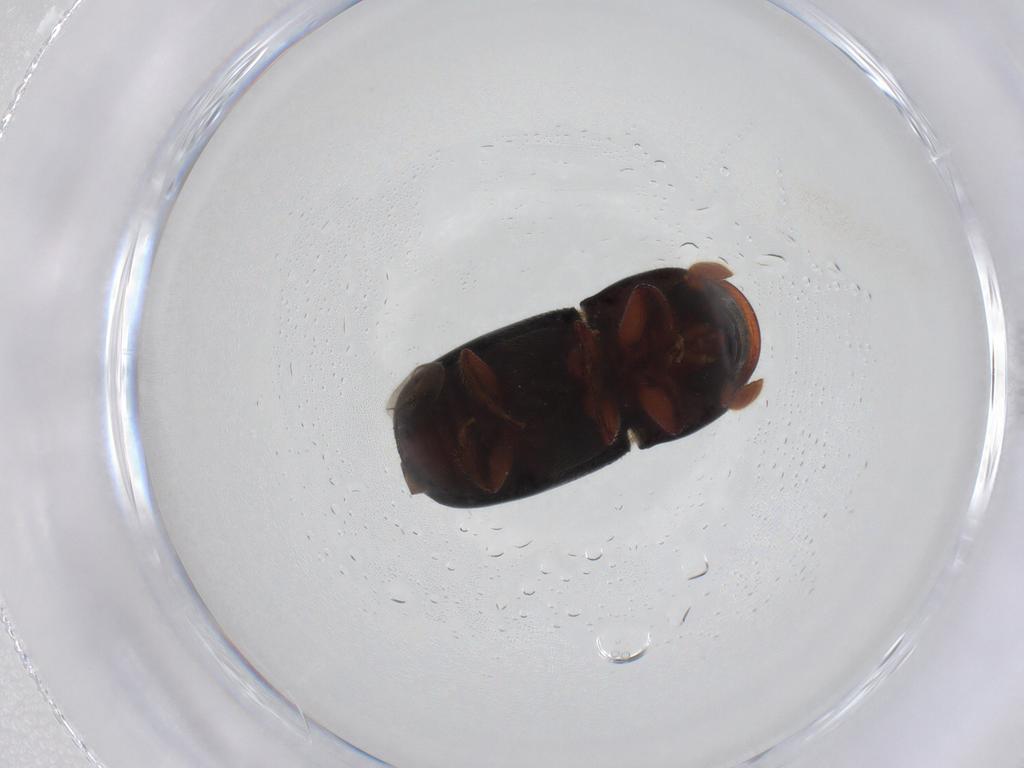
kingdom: Animalia
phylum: Arthropoda
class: Insecta
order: Coleoptera
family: Curculionidae
